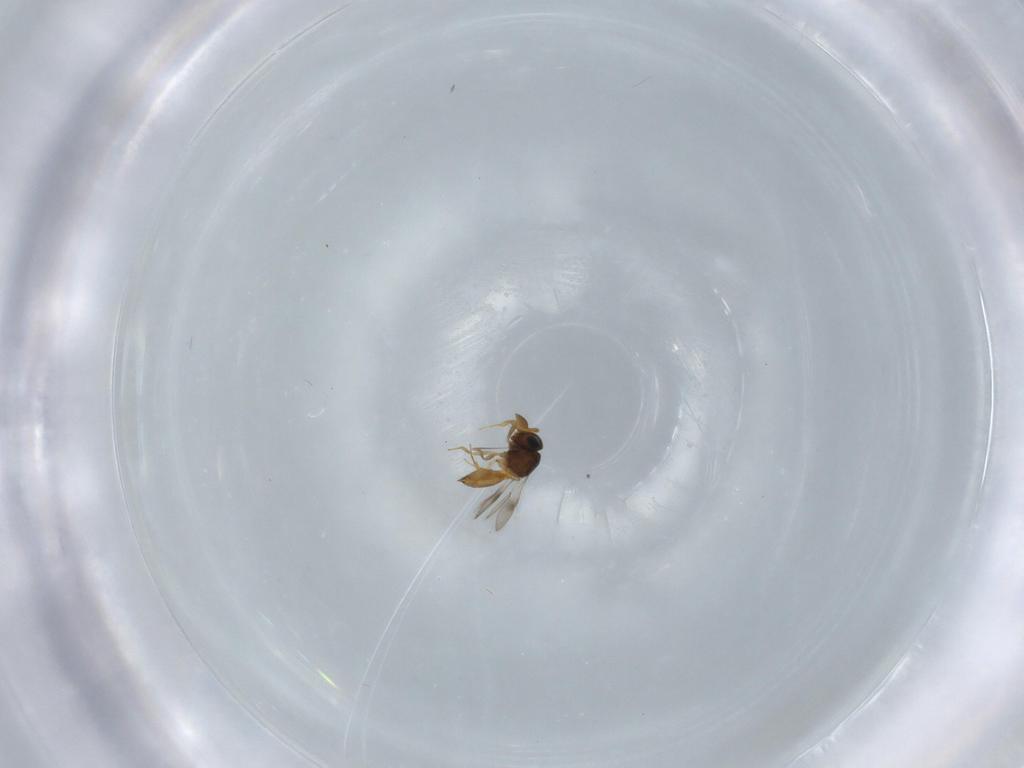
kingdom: Animalia
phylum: Arthropoda
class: Insecta
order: Hymenoptera
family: Scelionidae
